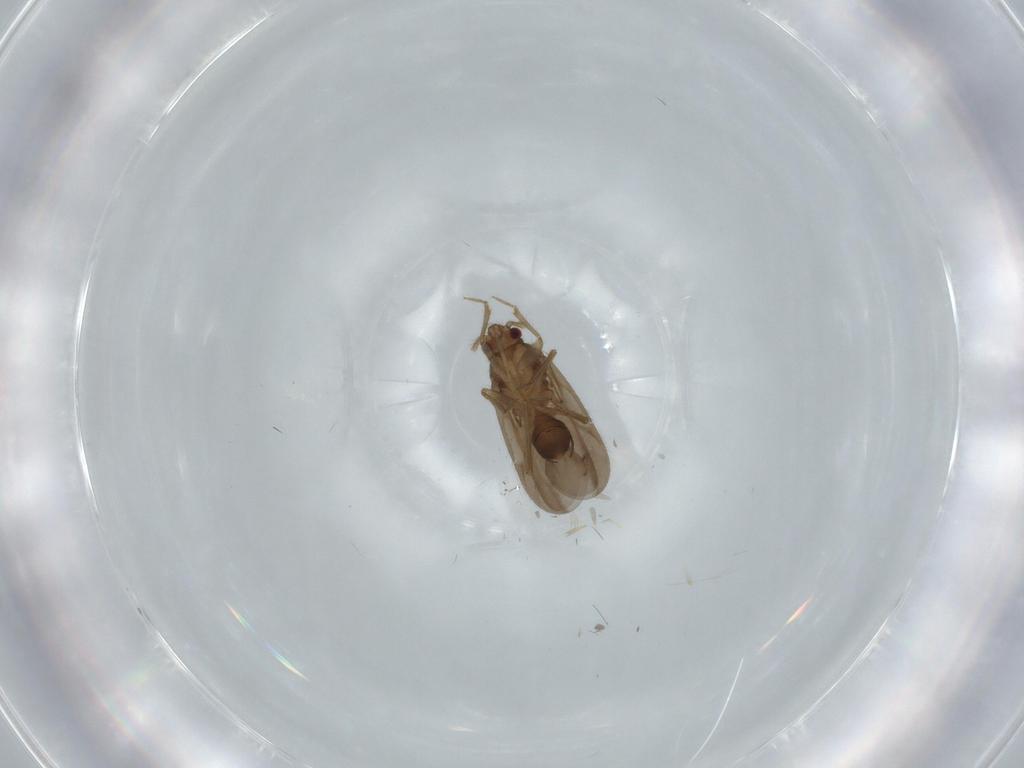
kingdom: Animalia
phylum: Arthropoda
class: Insecta
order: Hemiptera
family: Ceratocombidae
